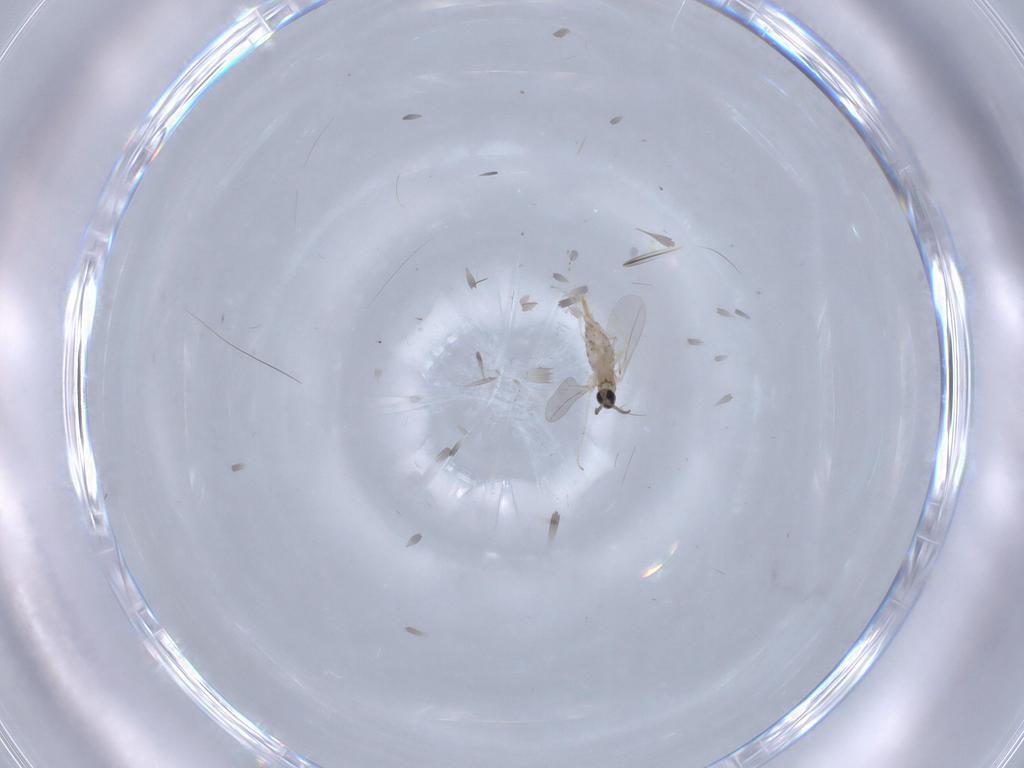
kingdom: Animalia
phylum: Arthropoda
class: Insecta
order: Diptera
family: Cecidomyiidae
